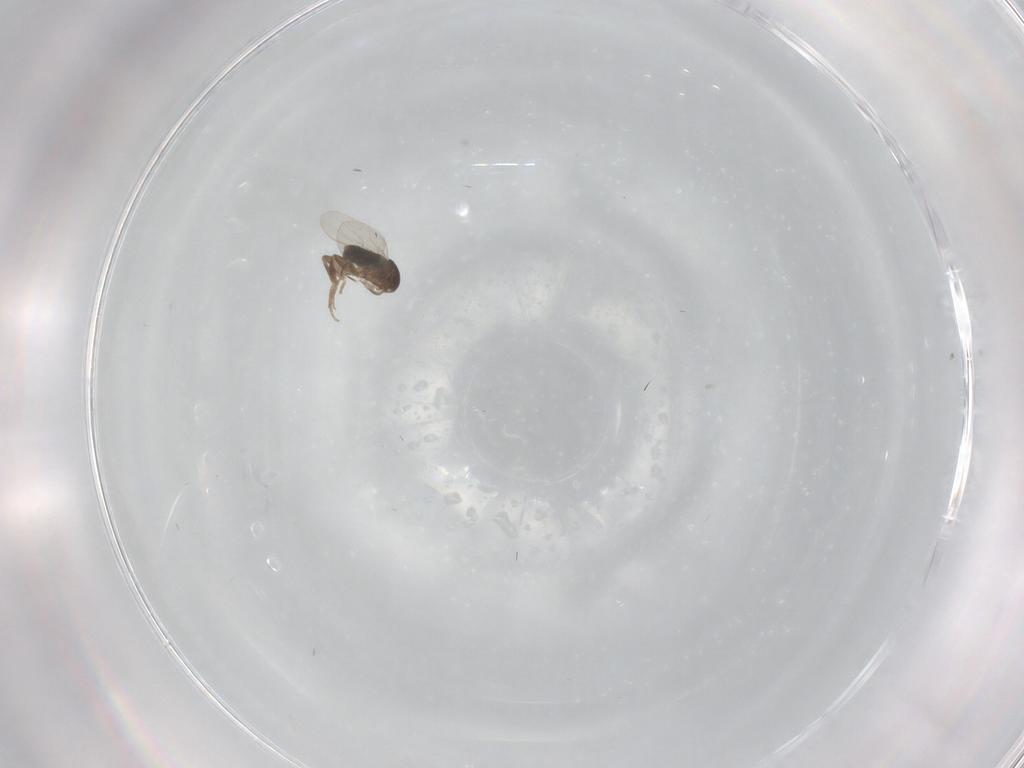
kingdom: Animalia
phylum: Arthropoda
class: Insecta
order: Diptera
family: Phoridae
